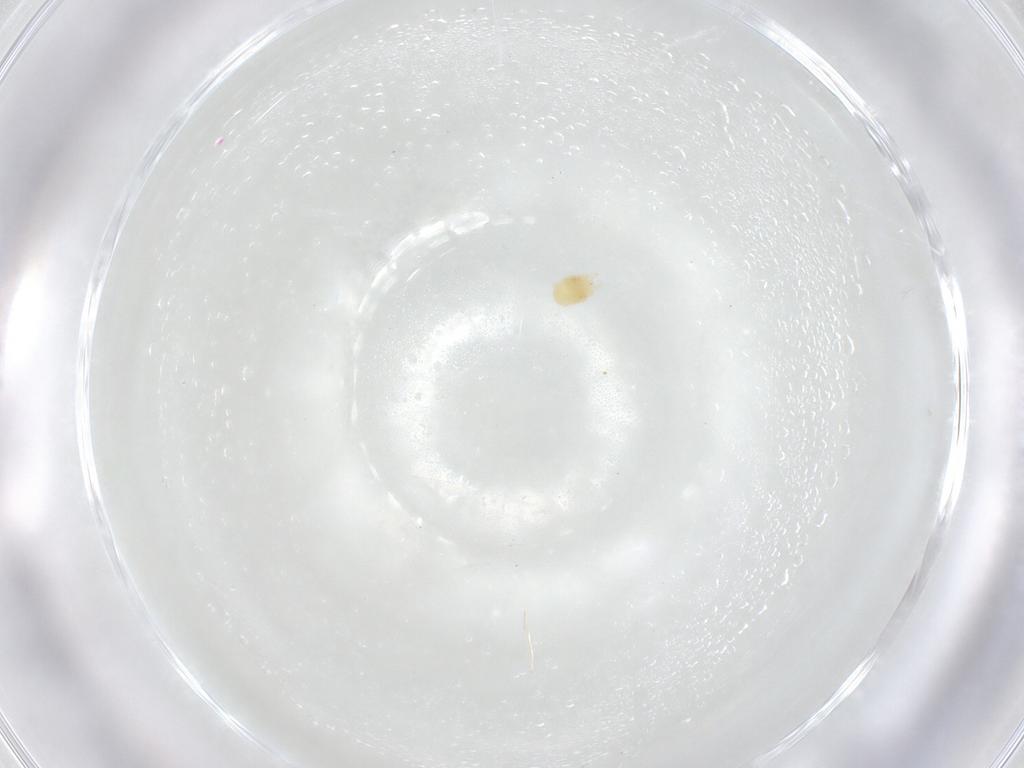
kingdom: Animalia
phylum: Arthropoda
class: Arachnida
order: Trombidiformes
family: Tetranychidae
